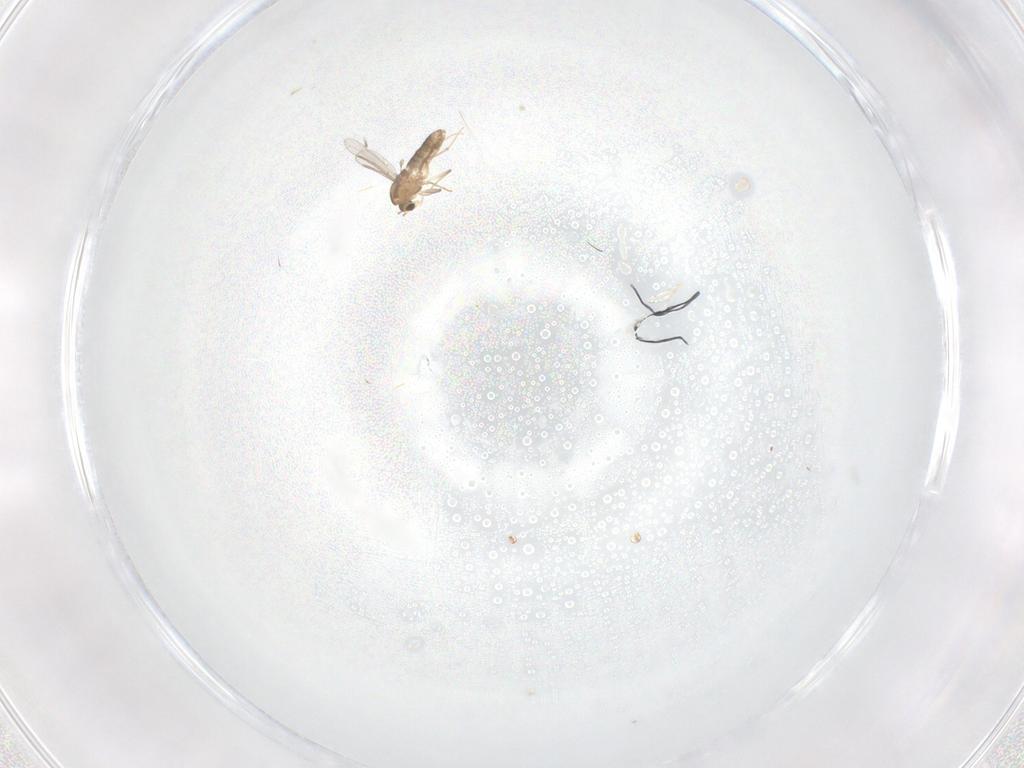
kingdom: Animalia
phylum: Arthropoda
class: Insecta
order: Diptera
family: Chironomidae
